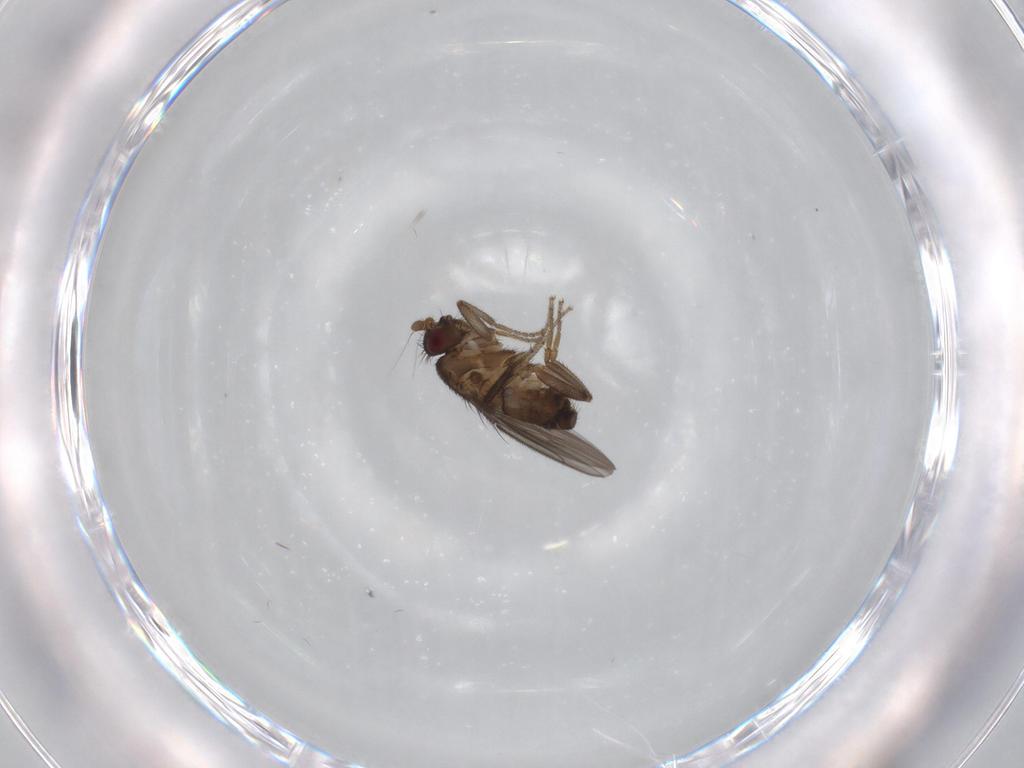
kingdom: Animalia
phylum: Arthropoda
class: Insecta
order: Diptera
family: Sphaeroceridae
